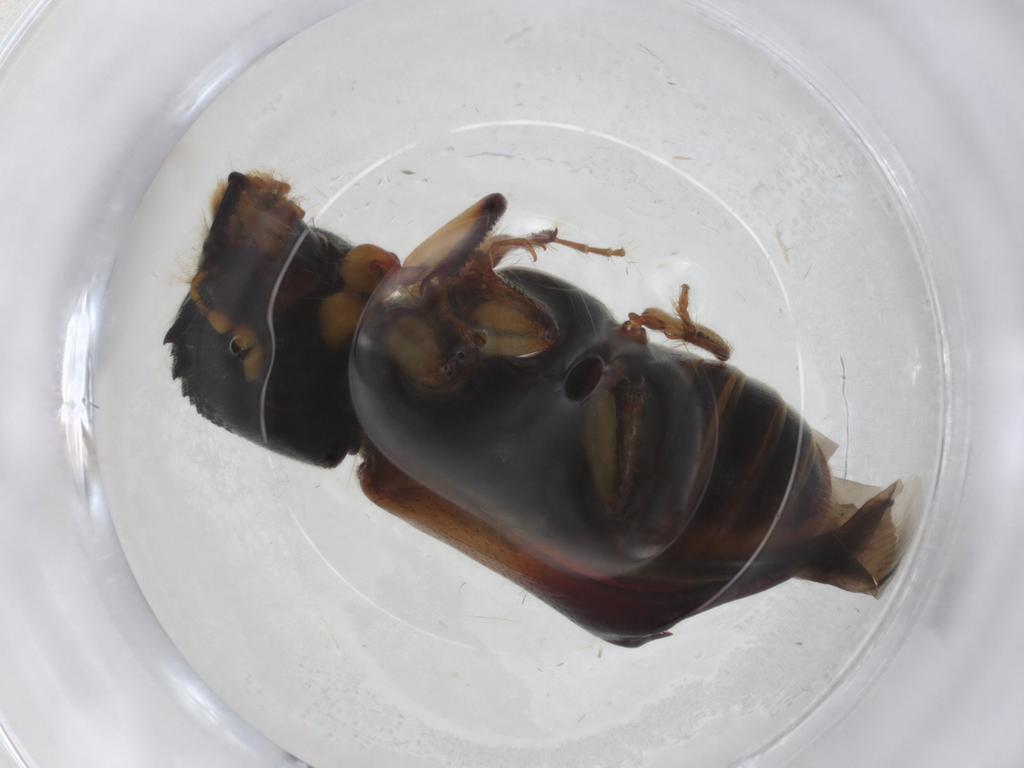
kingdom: Animalia
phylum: Arthropoda
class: Insecta
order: Coleoptera
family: Bostrichidae
